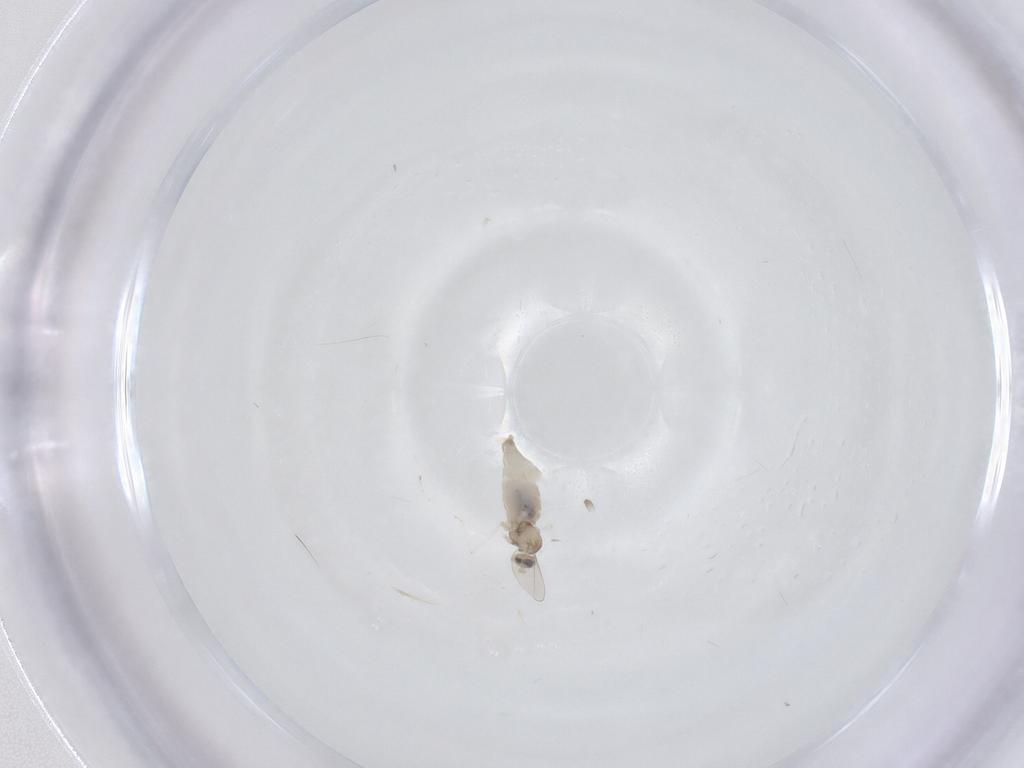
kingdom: Animalia
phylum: Arthropoda
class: Insecta
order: Diptera
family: Cecidomyiidae
